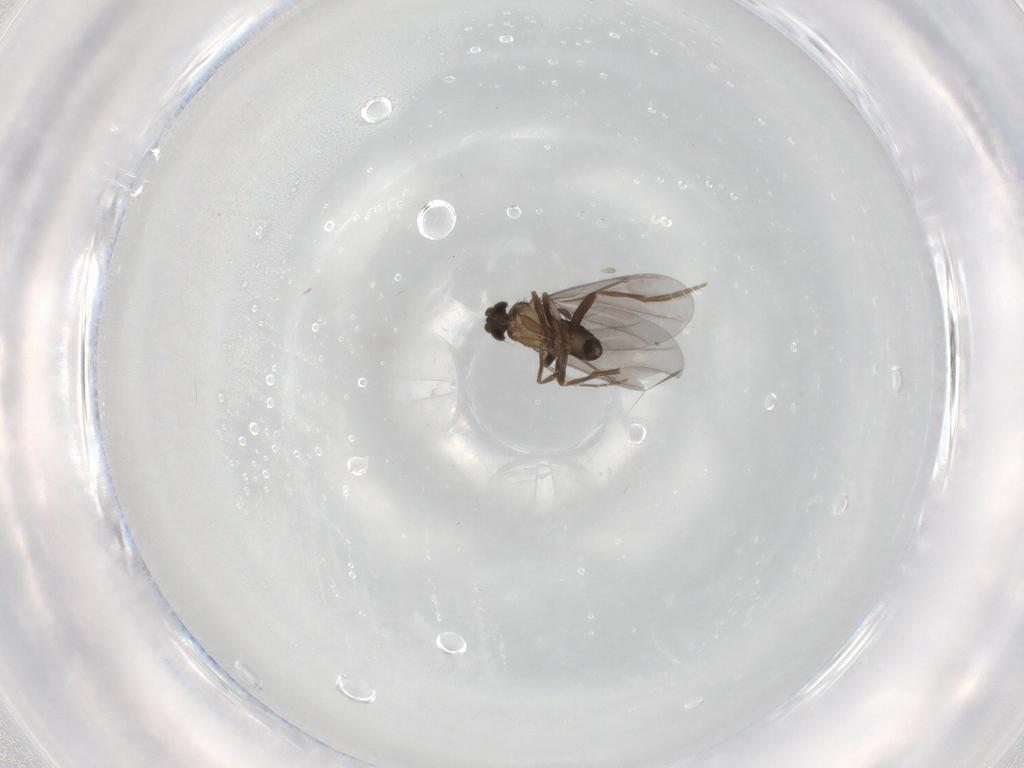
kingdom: Animalia
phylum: Arthropoda
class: Insecta
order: Diptera
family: Phoridae
